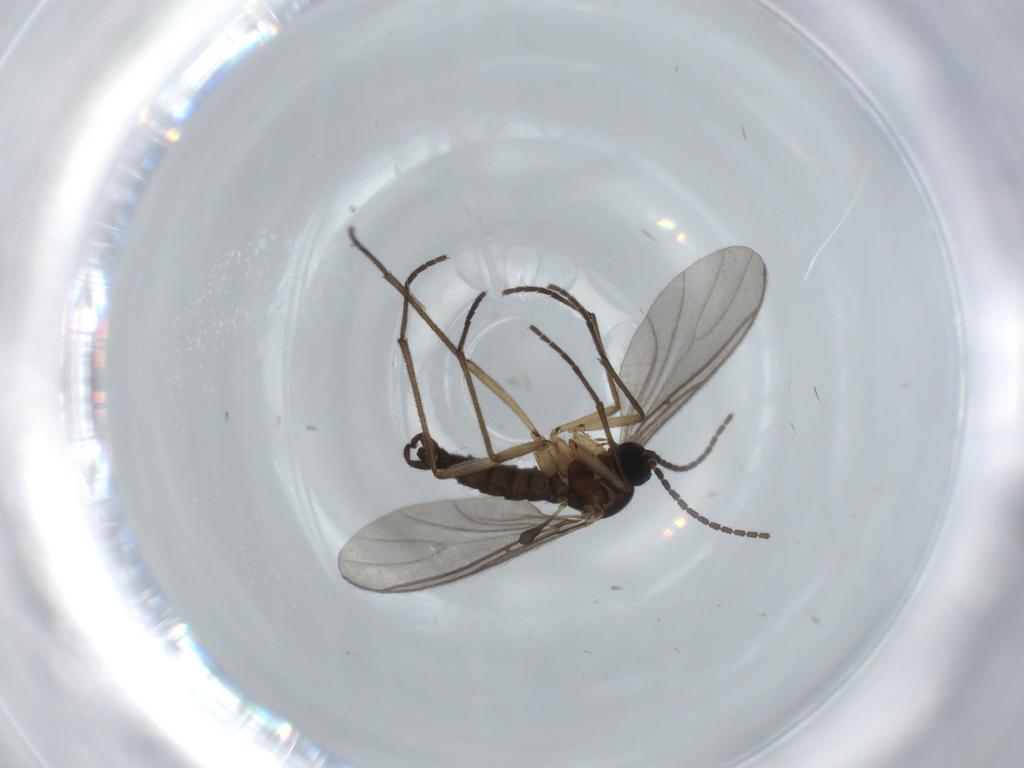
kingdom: Animalia
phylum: Arthropoda
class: Insecta
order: Diptera
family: Sciaridae
